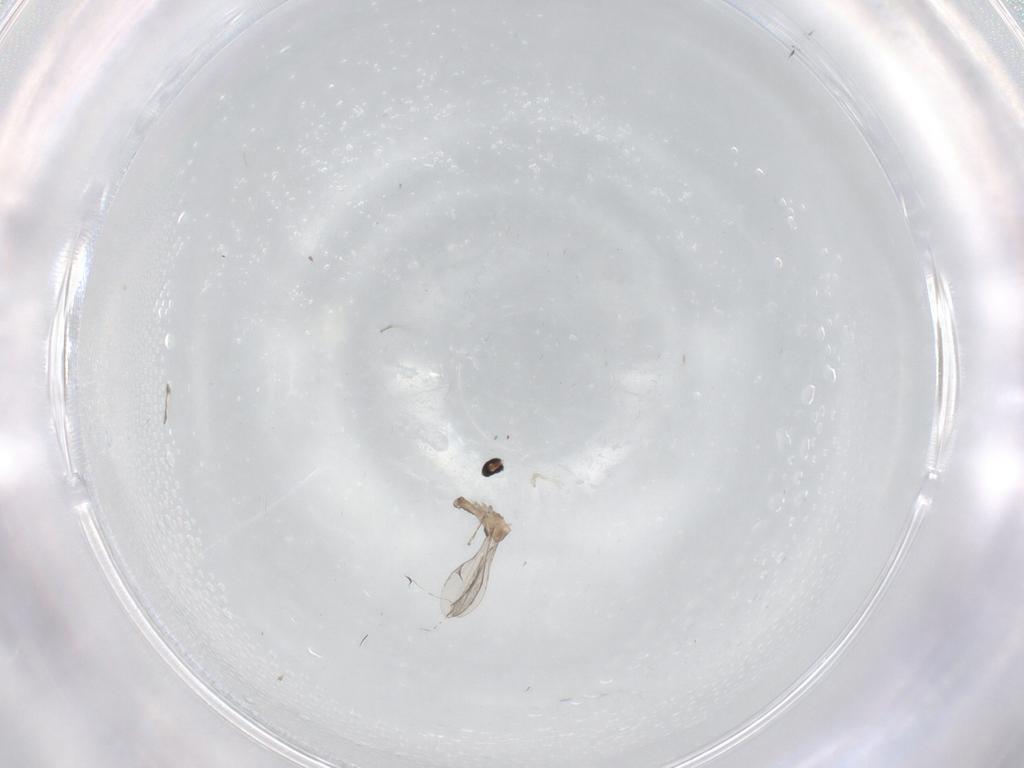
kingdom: Animalia
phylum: Arthropoda
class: Insecta
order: Diptera
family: Cecidomyiidae
